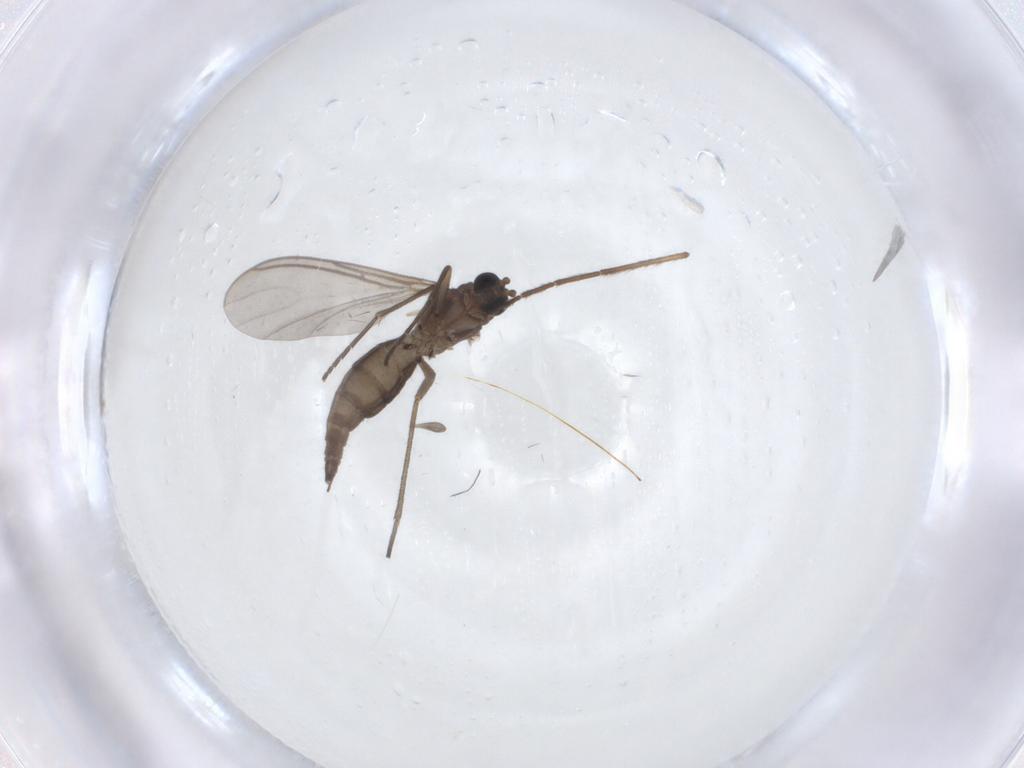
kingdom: Animalia
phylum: Arthropoda
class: Insecta
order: Diptera
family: Chironomidae
